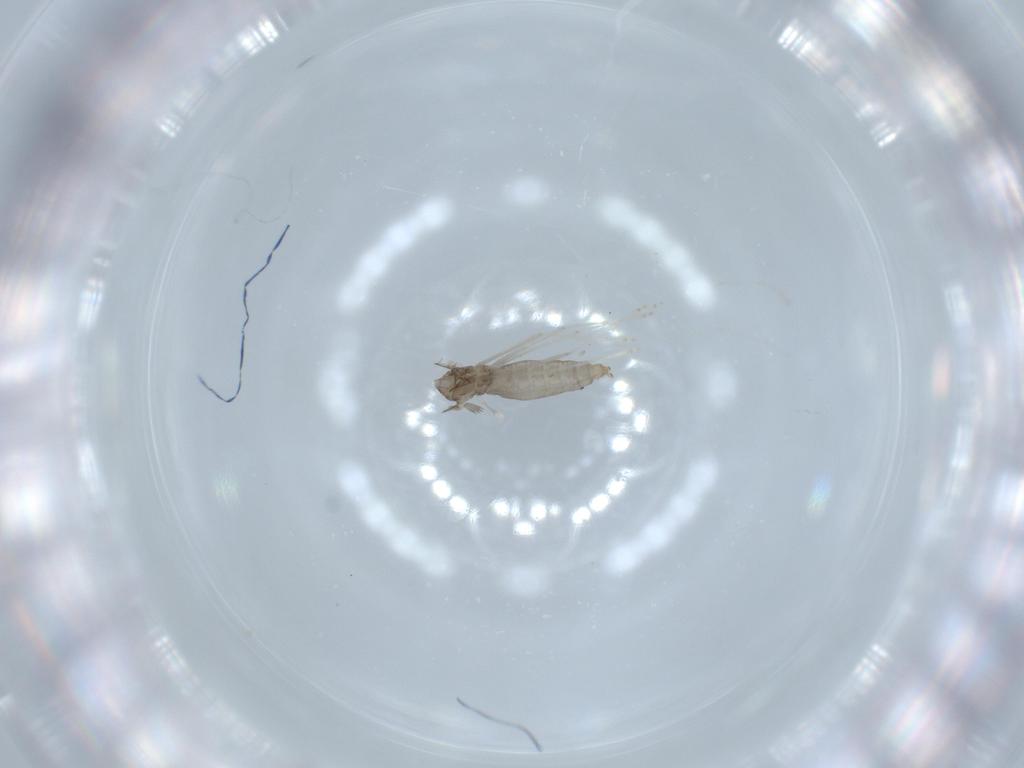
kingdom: Animalia
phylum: Arthropoda
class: Insecta
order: Diptera
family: Cecidomyiidae
